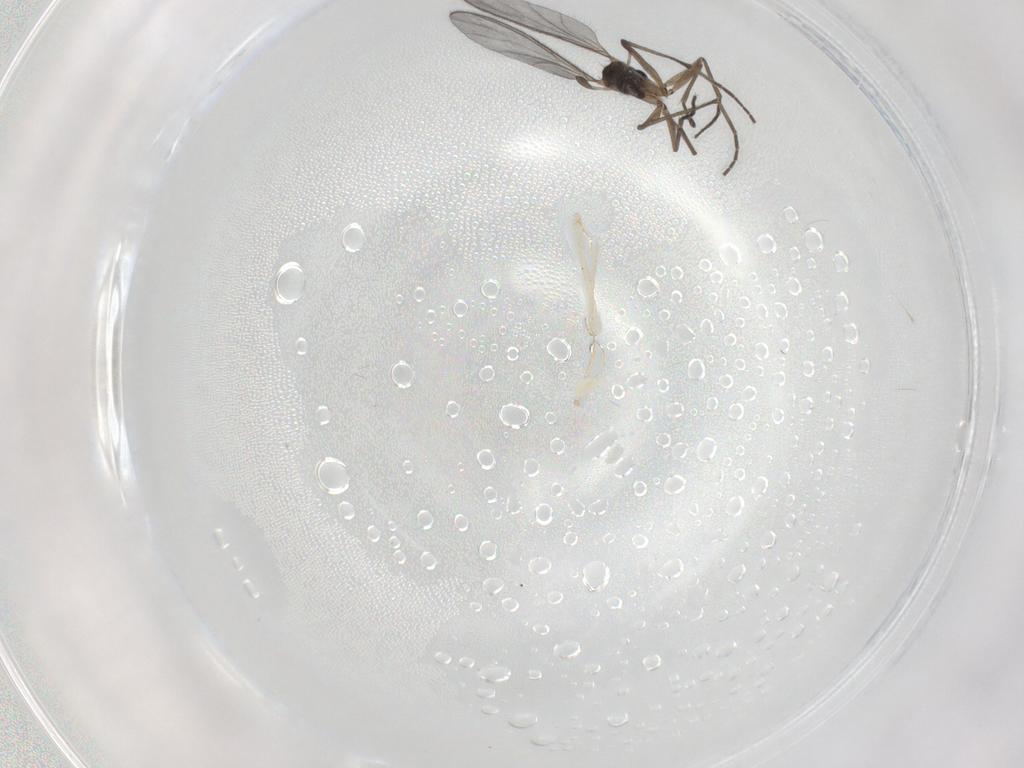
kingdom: Animalia
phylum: Arthropoda
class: Insecta
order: Diptera
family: Sciaridae
